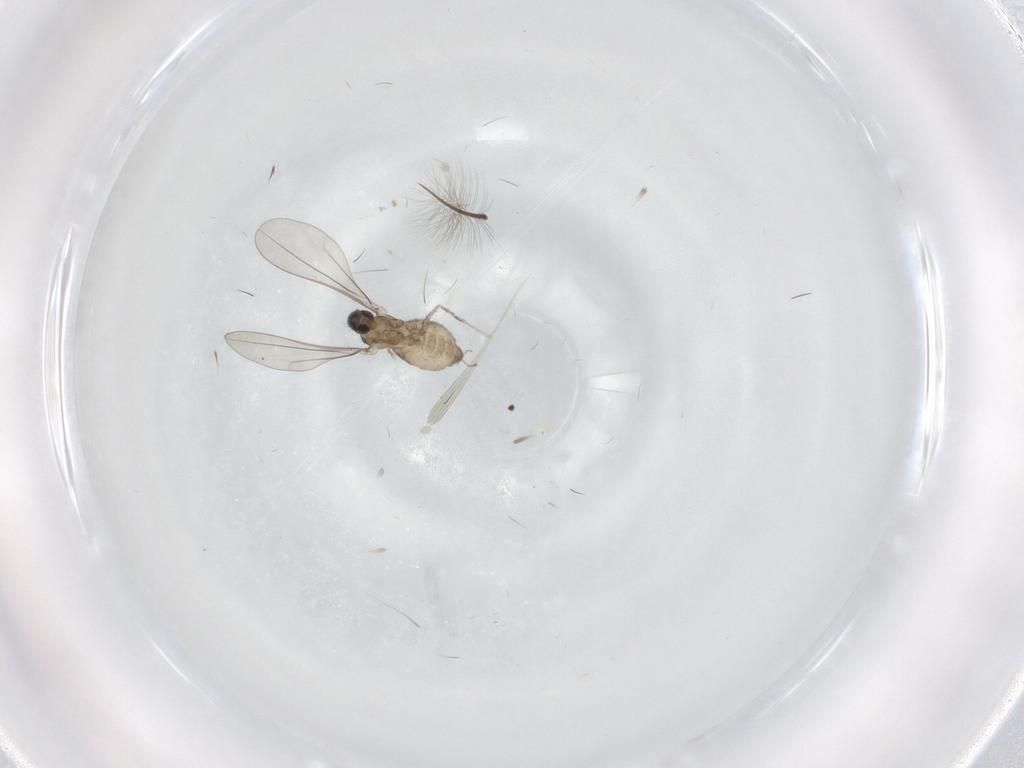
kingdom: Animalia
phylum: Arthropoda
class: Insecta
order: Diptera
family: Cecidomyiidae
